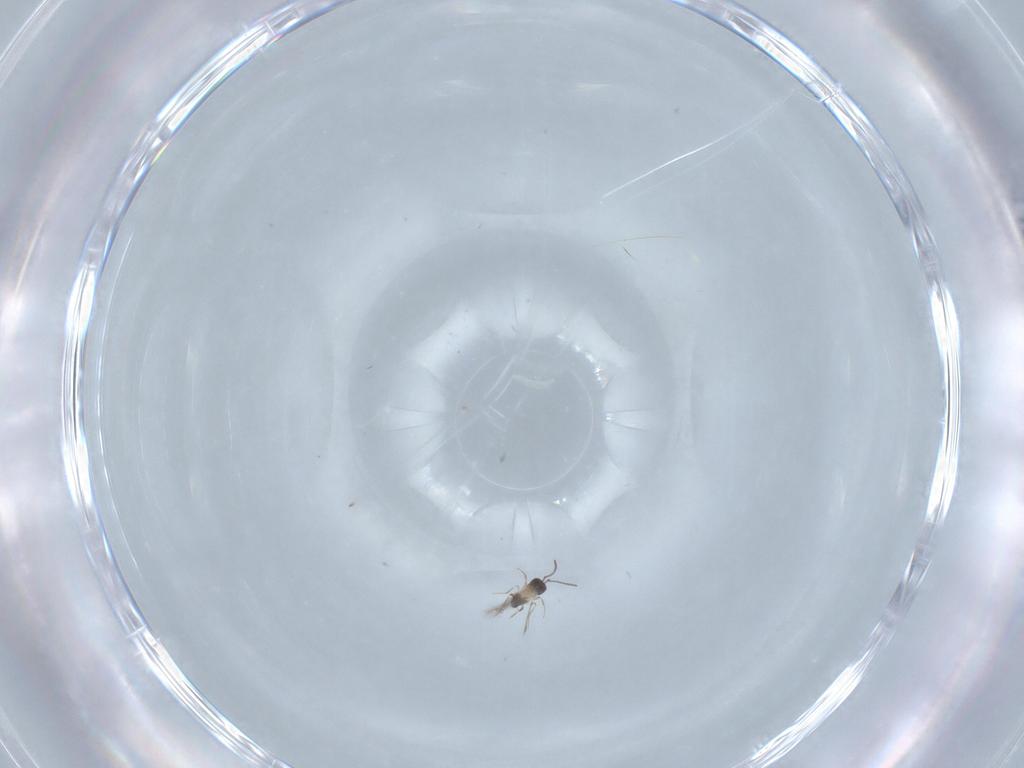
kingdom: Animalia
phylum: Arthropoda
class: Insecta
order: Hymenoptera
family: Mymaridae
